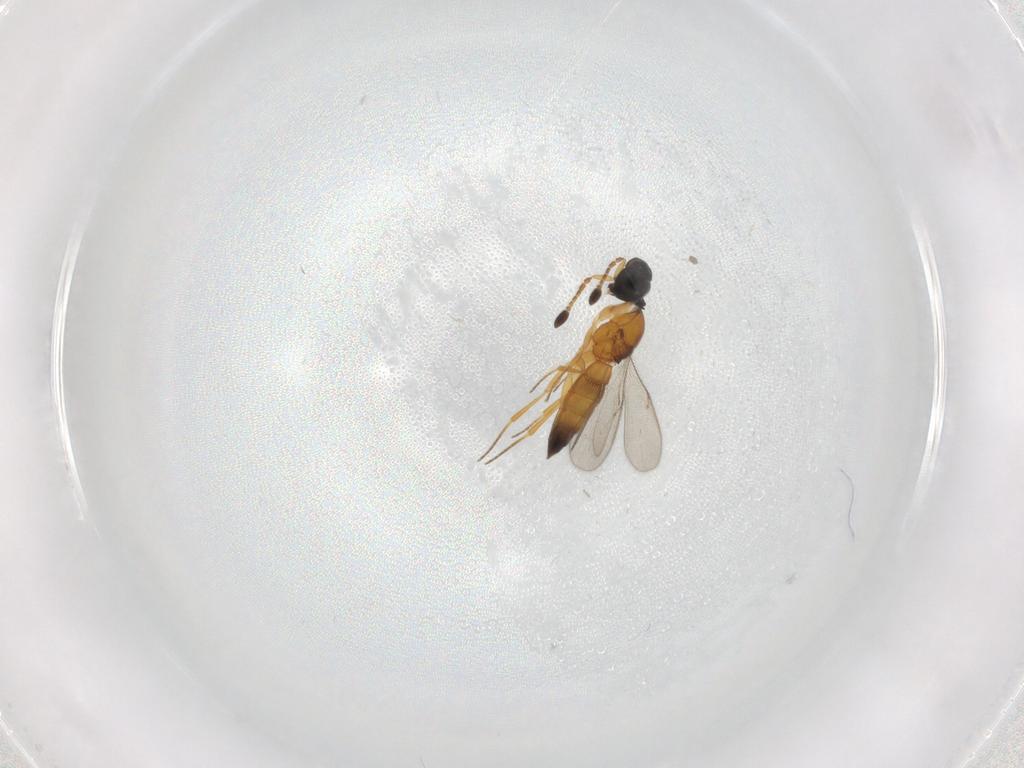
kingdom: Animalia
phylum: Arthropoda
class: Insecta
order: Hymenoptera
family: Scelionidae
